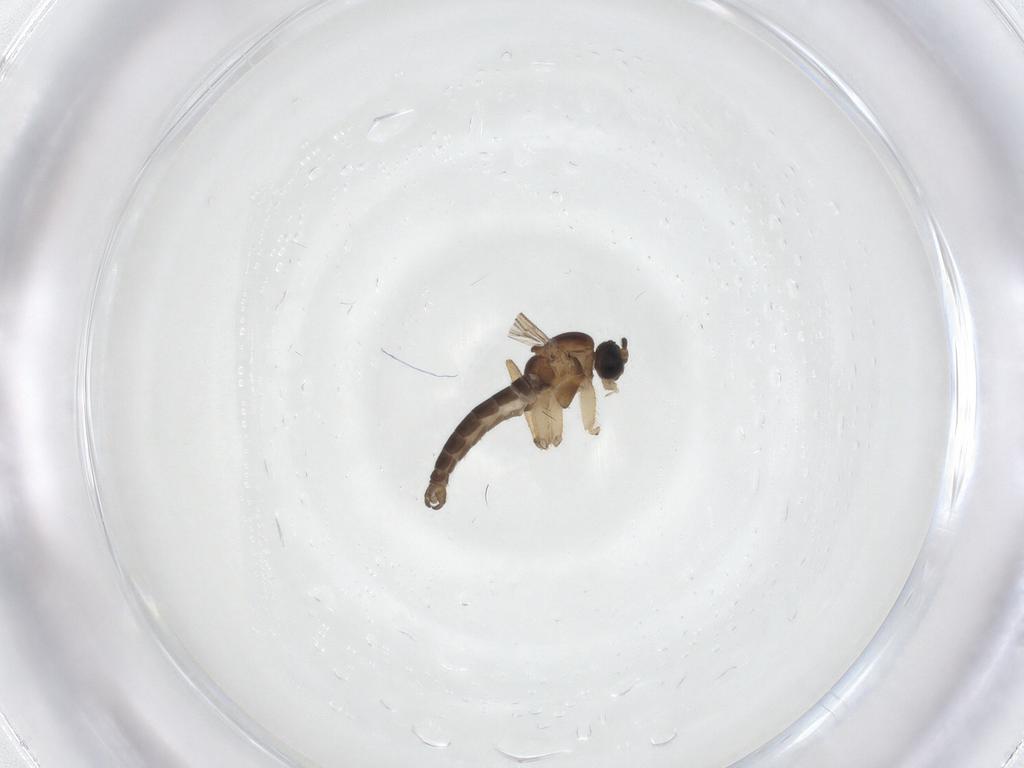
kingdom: Animalia
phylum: Arthropoda
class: Insecta
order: Diptera
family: Sciaridae
